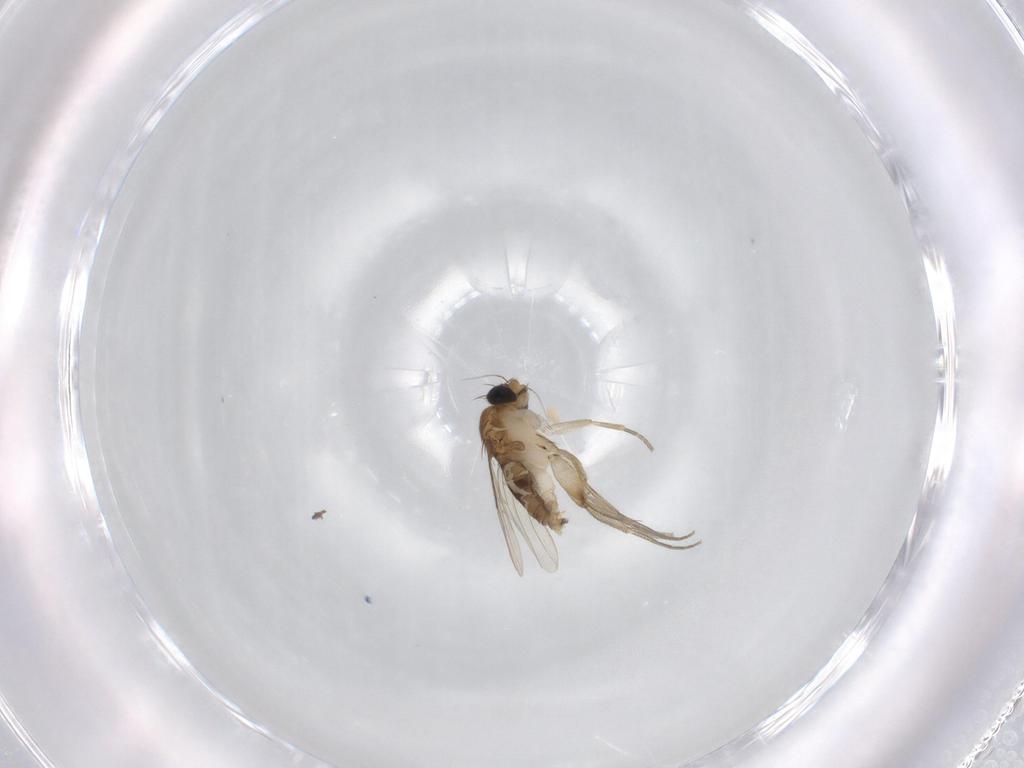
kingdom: Animalia
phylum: Arthropoda
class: Insecta
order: Diptera
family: Phoridae
